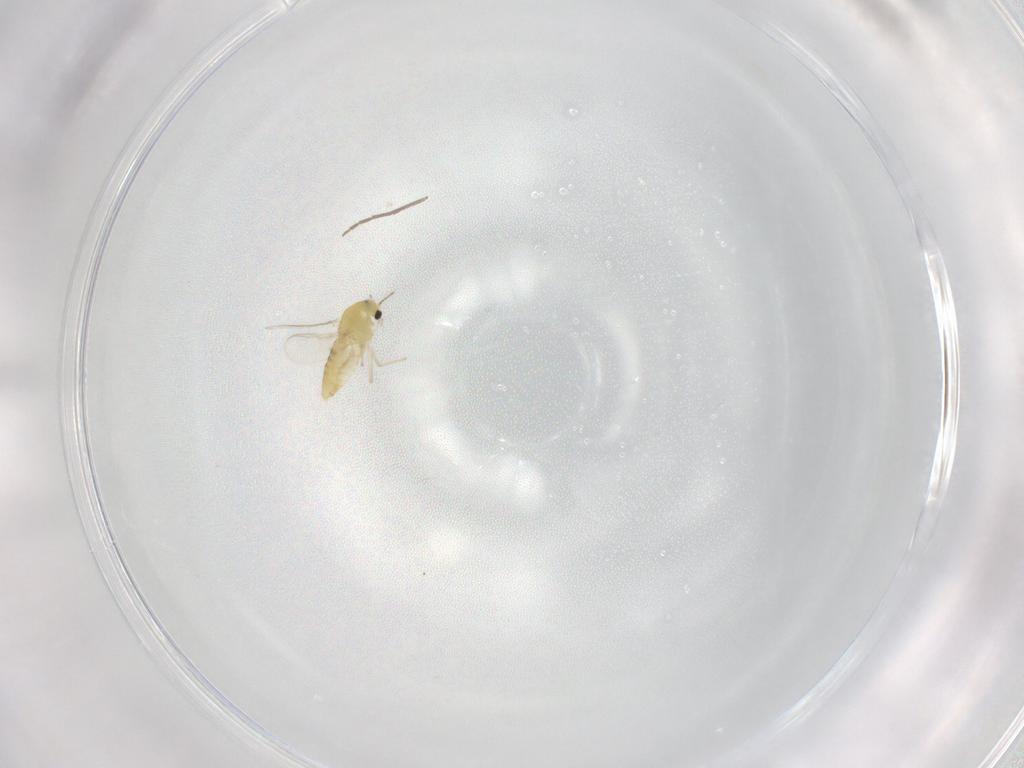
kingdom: Animalia
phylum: Arthropoda
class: Insecta
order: Diptera
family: Chironomidae
